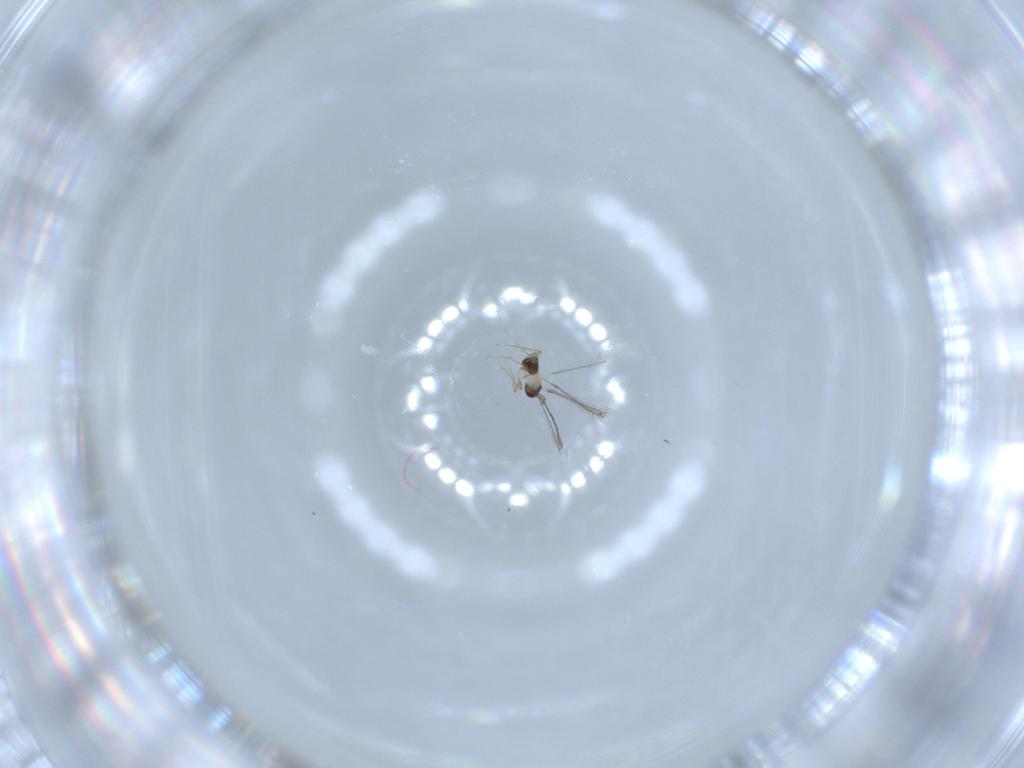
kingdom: Animalia
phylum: Arthropoda
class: Insecta
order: Hymenoptera
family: Mymaridae
